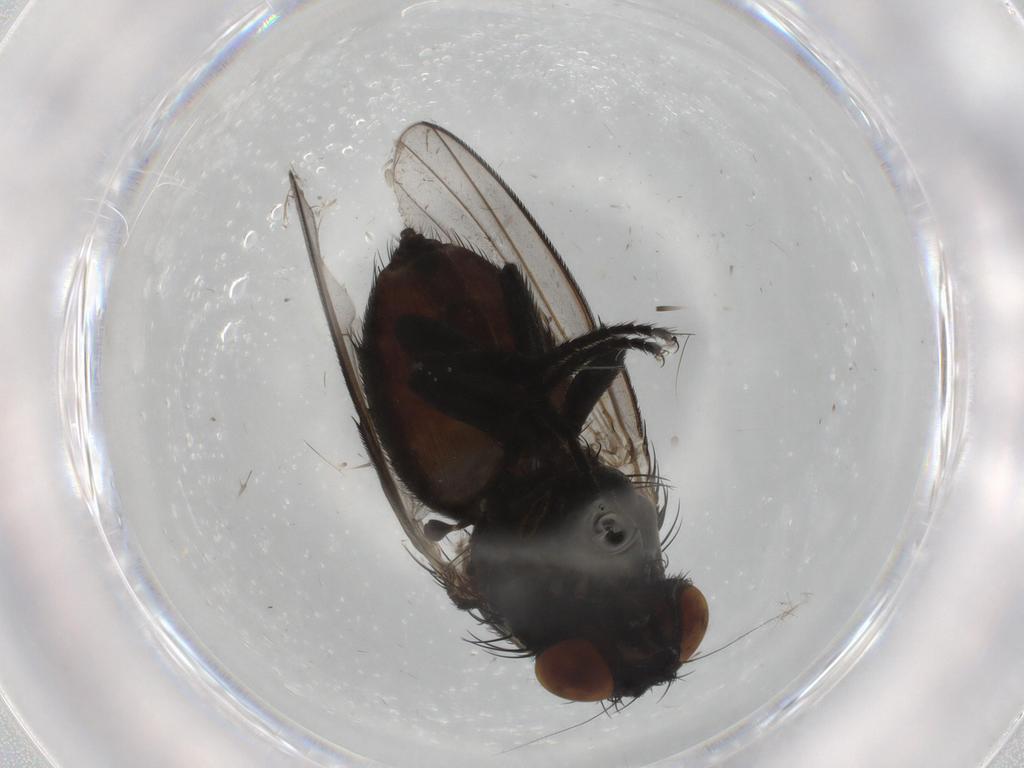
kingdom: Animalia
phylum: Arthropoda
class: Insecta
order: Diptera
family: Milichiidae
